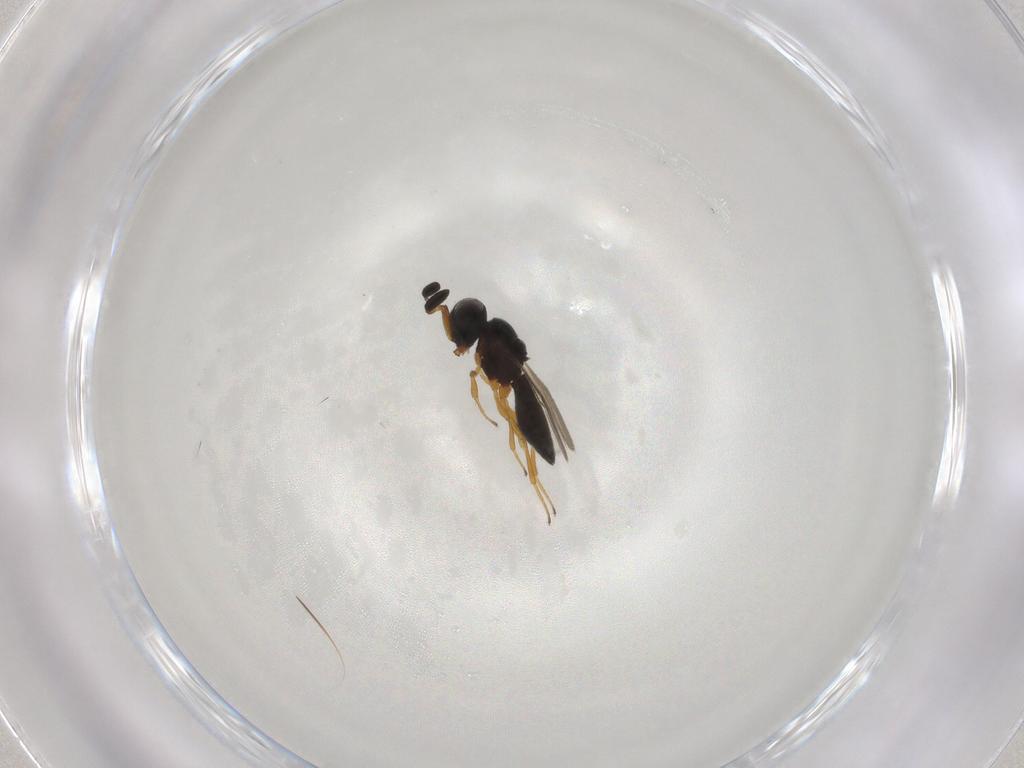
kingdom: Animalia
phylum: Arthropoda
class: Insecta
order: Hymenoptera
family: Scelionidae
